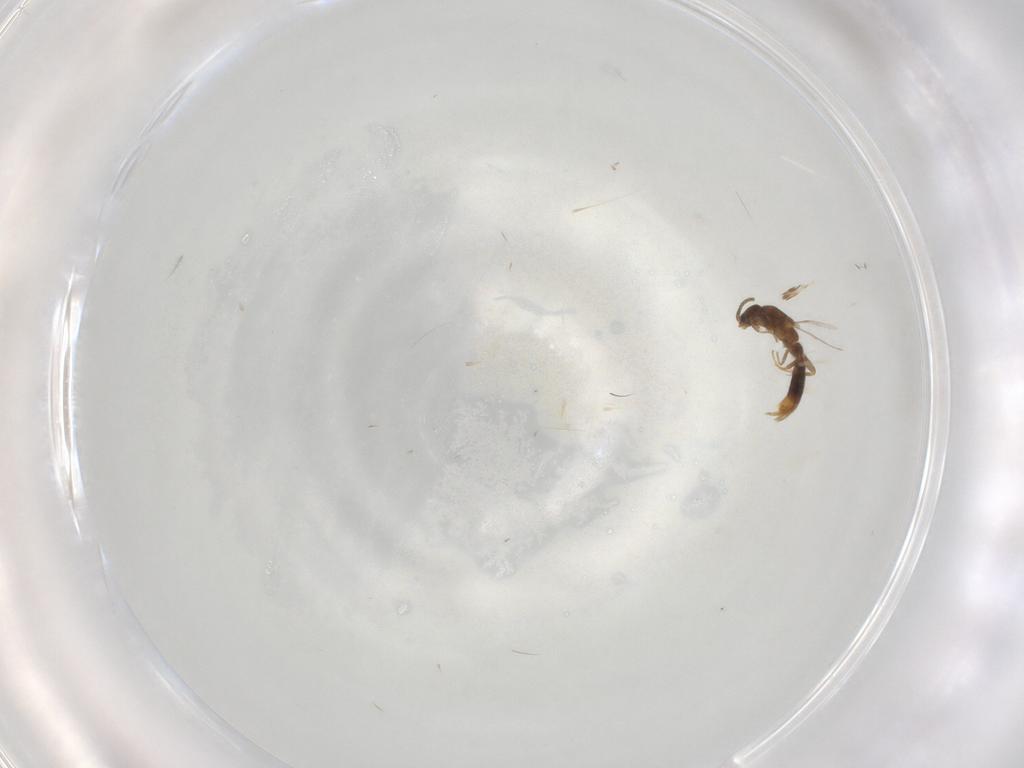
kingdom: Animalia
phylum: Arthropoda
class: Insecta
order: Hymenoptera
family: Formicidae
